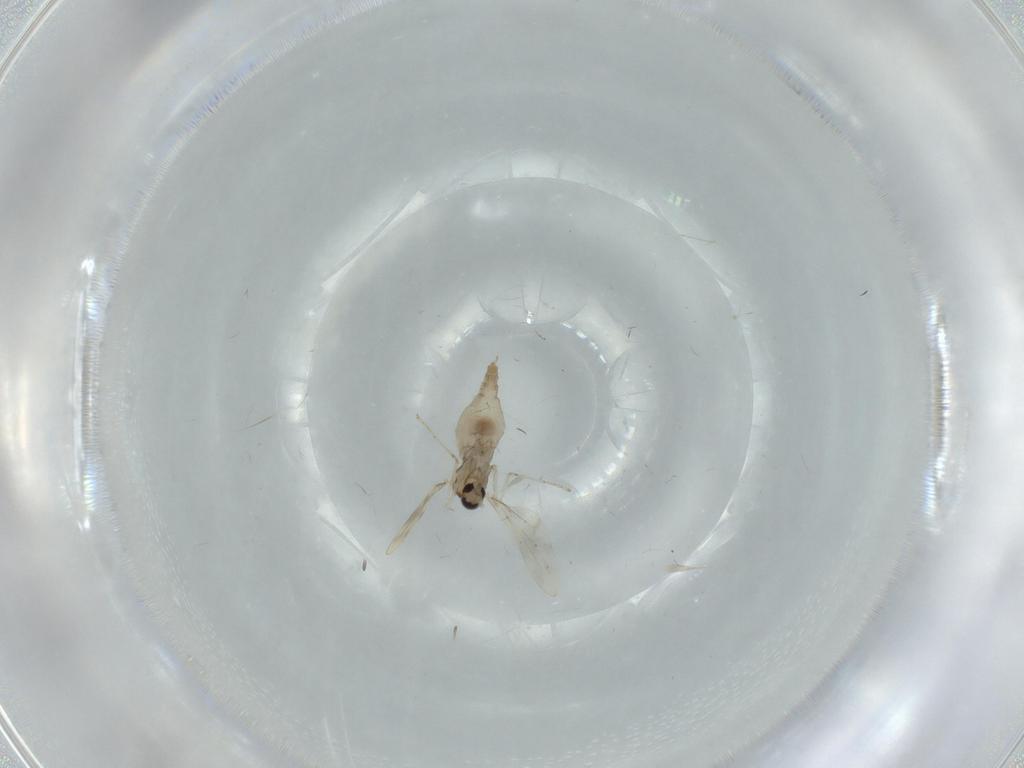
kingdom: Animalia
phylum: Arthropoda
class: Insecta
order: Diptera
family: Cecidomyiidae
